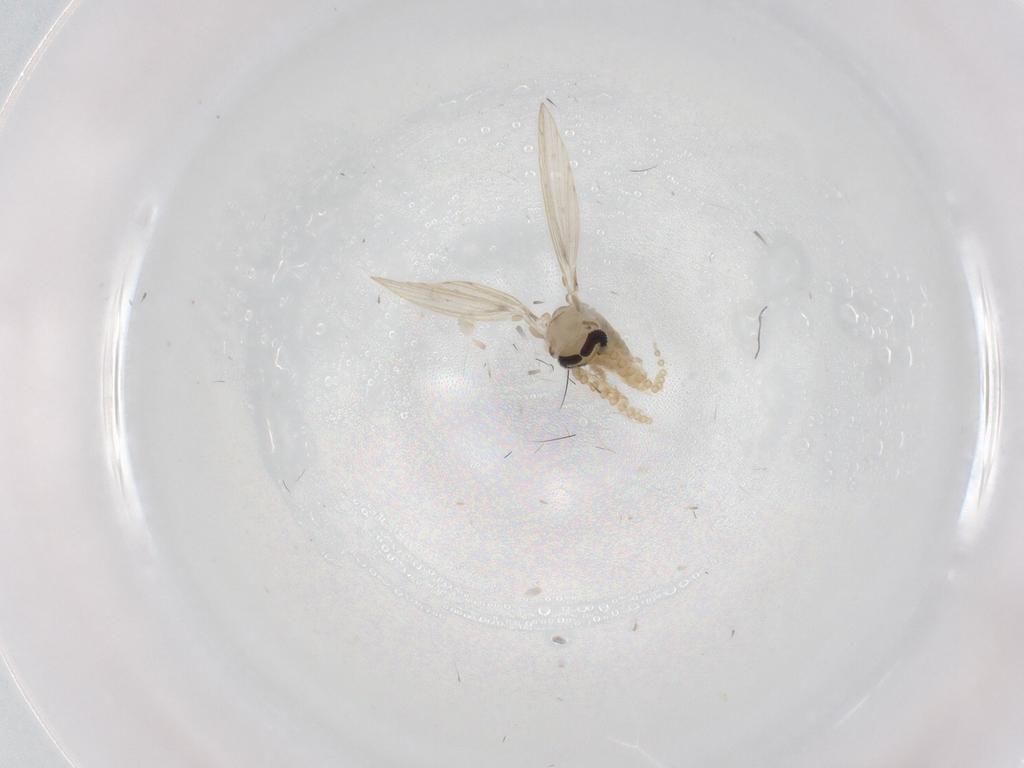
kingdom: Animalia
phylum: Arthropoda
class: Insecta
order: Diptera
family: Psychodidae
